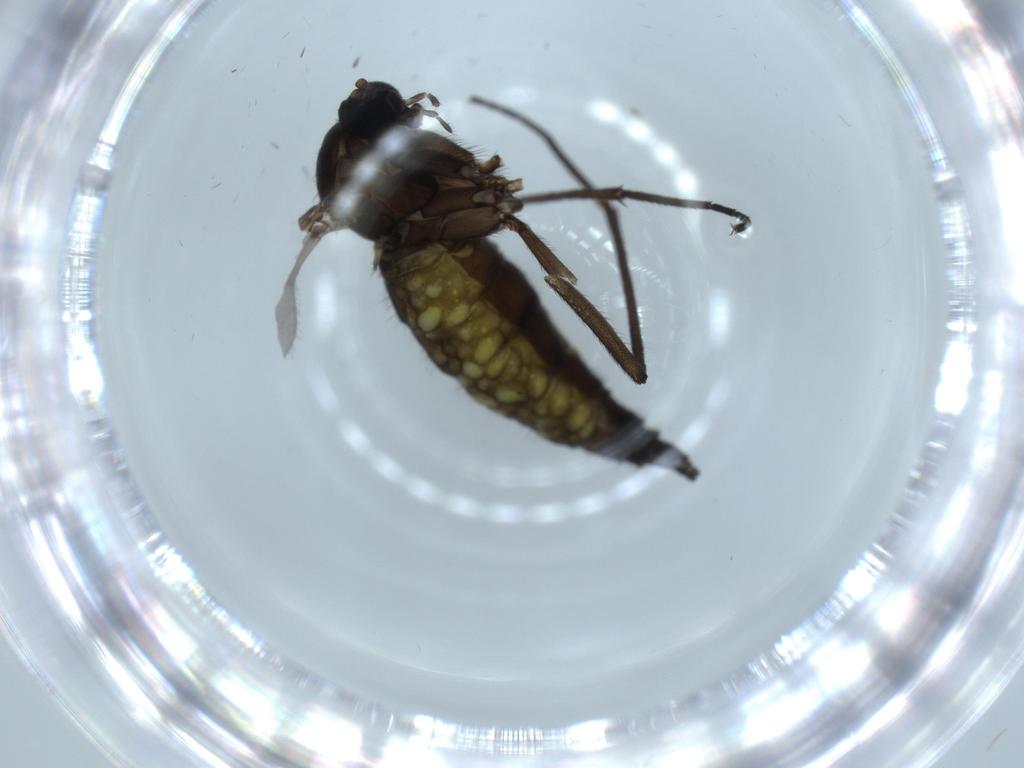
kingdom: Animalia
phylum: Arthropoda
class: Insecta
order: Diptera
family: Sciaridae
